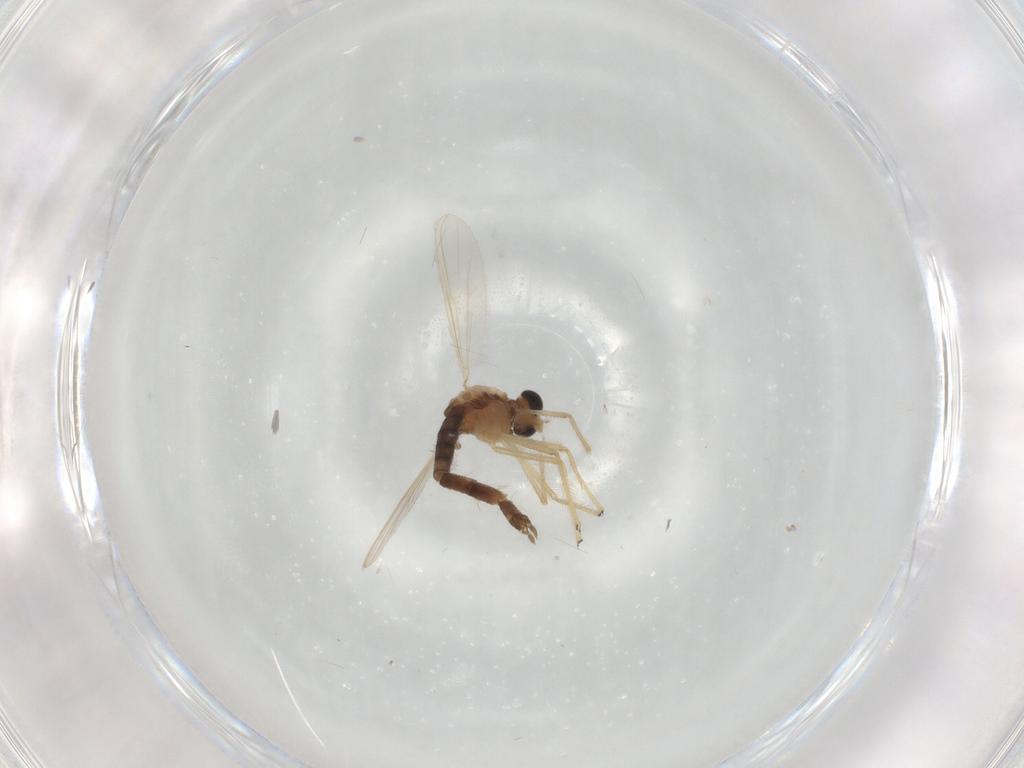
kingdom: Animalia
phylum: Arthropoda
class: Insecta
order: Diptera
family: Chironomidae
